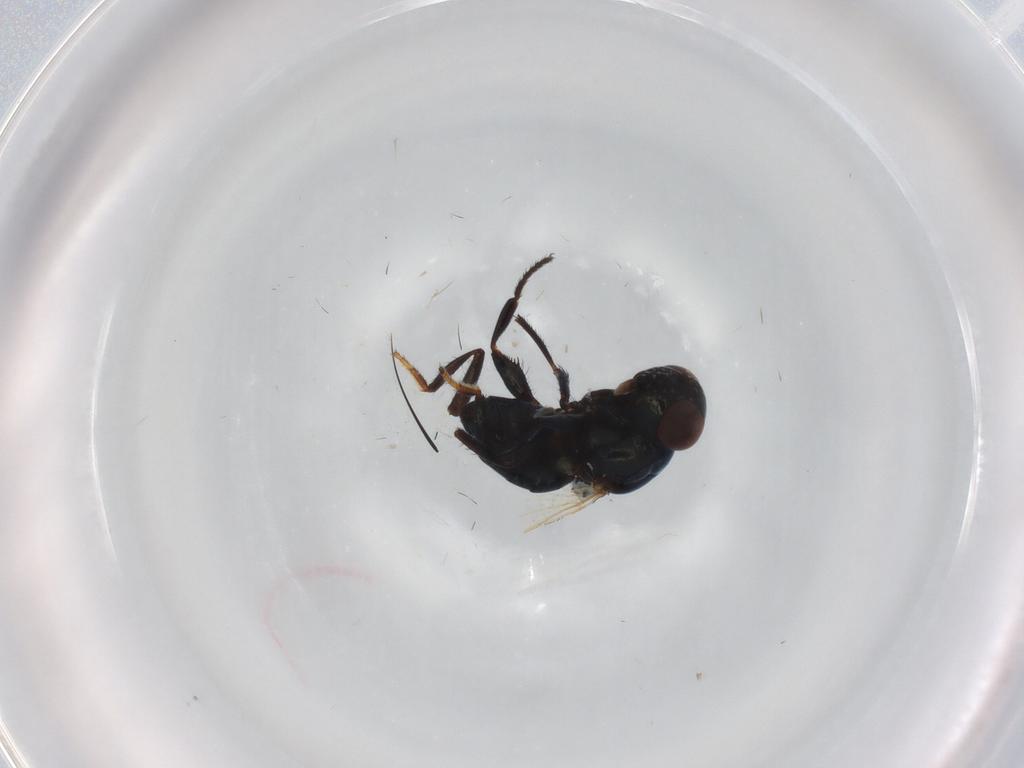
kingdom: Animalia
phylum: Arthropoda
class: Insecta
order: Diptera
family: Ephydridae
